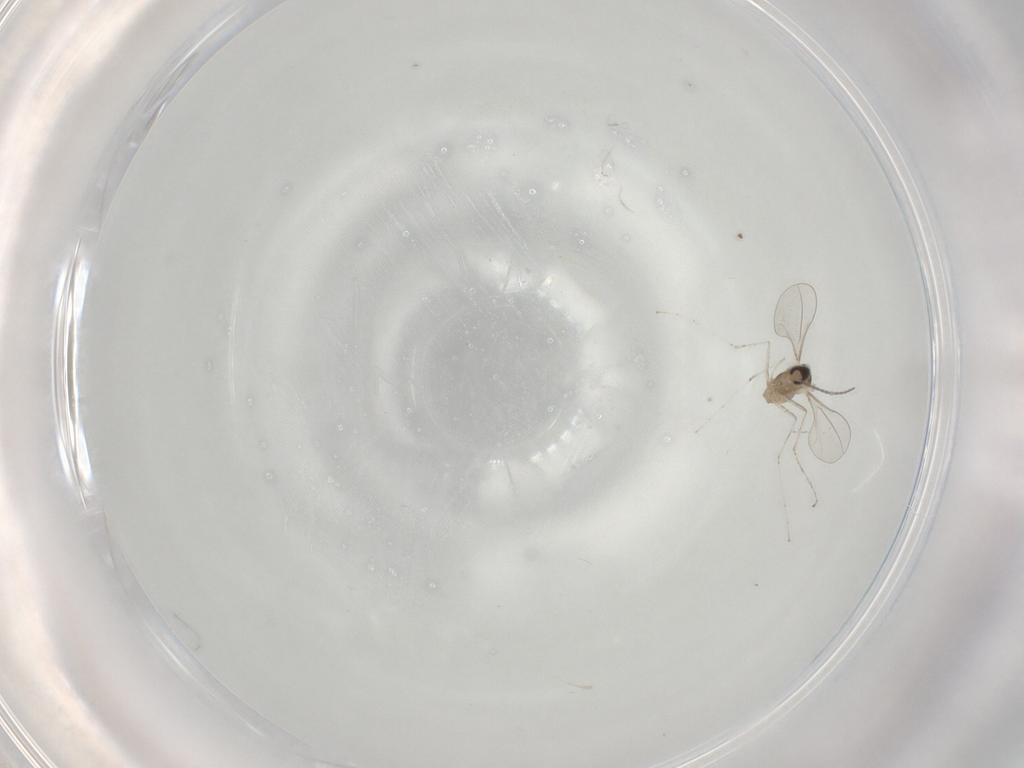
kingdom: Animalia
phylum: Arthropoda
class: Insecta
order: Diptera
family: Cecidomyiidae
